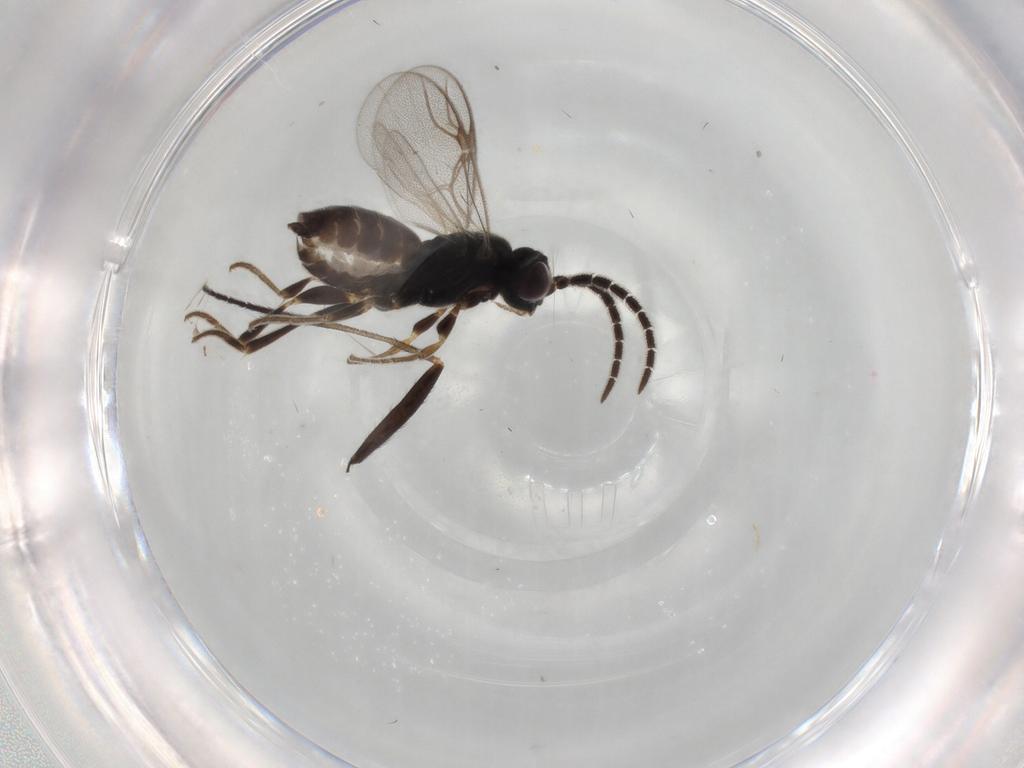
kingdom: Animalia
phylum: Arthropoda
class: Insecta
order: Hymenoptera
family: Dryinidae
